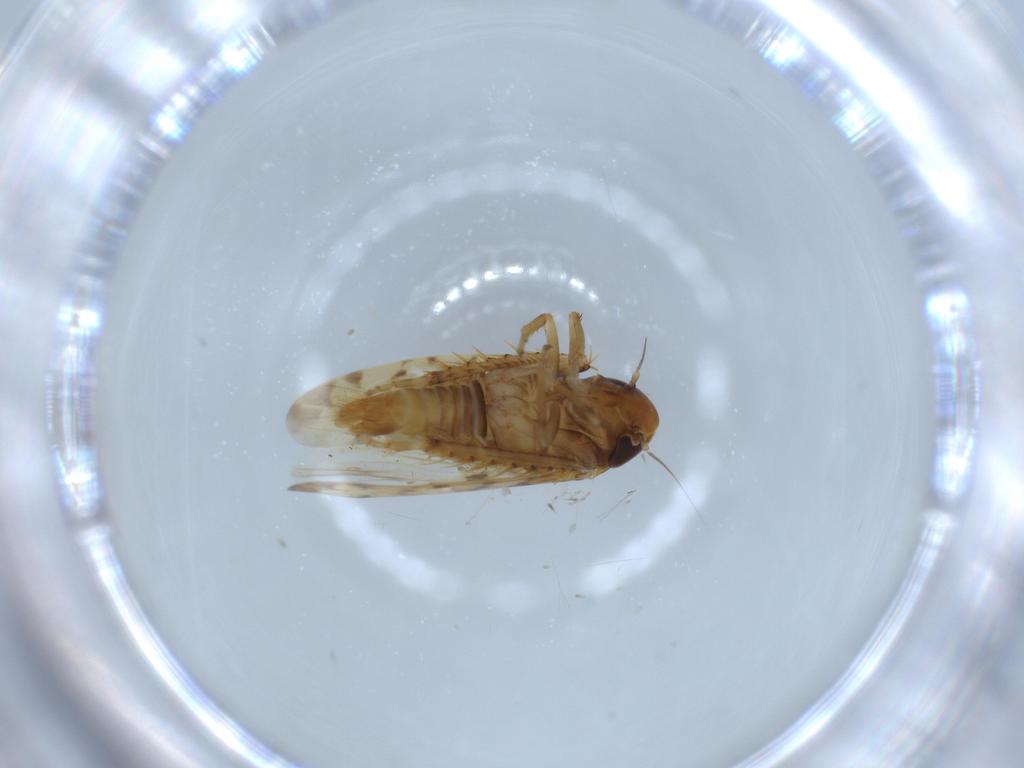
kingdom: Animalia
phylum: Arthropoda
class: Insecta
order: Hemiptera
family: Cicadellidae
